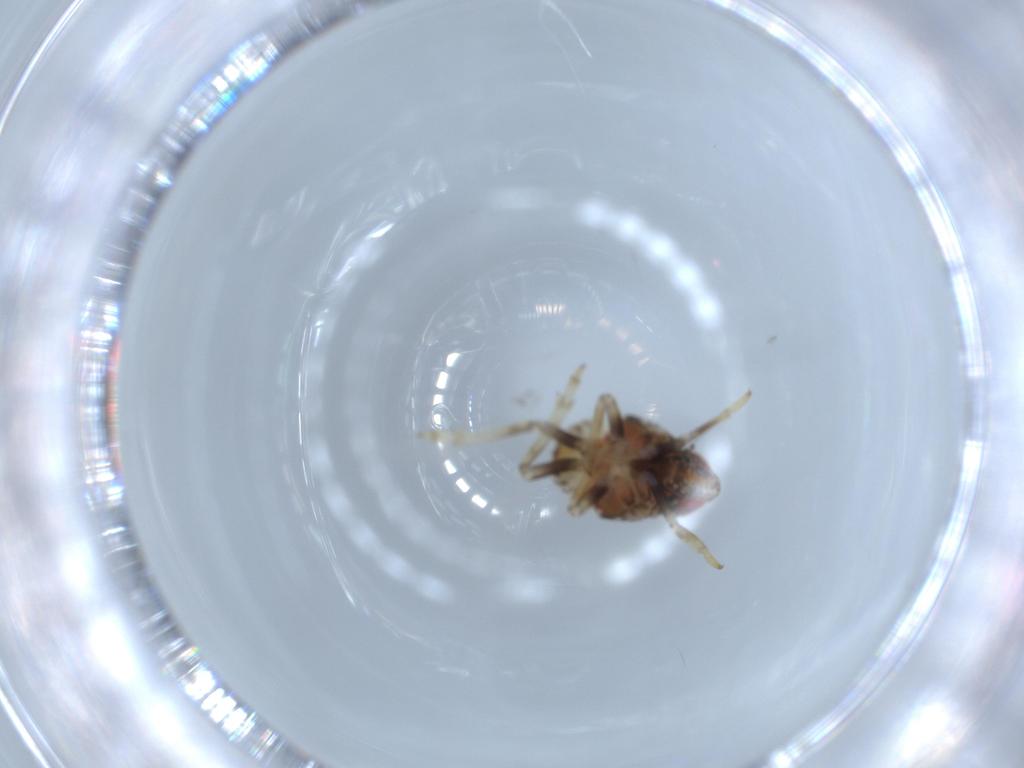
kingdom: Animalia
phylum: Arthropoda
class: Insecta
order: Hemiptera
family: Issidae
